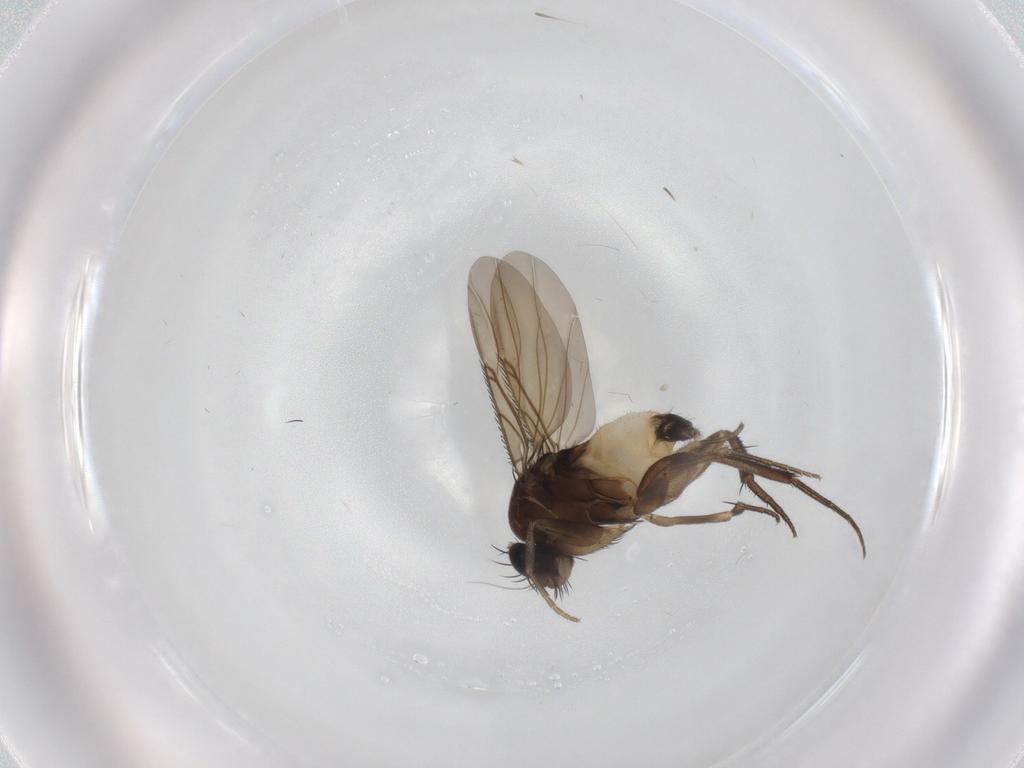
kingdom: Animalia
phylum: Arthropoda
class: Insecta
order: Diptera
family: Phoridae
